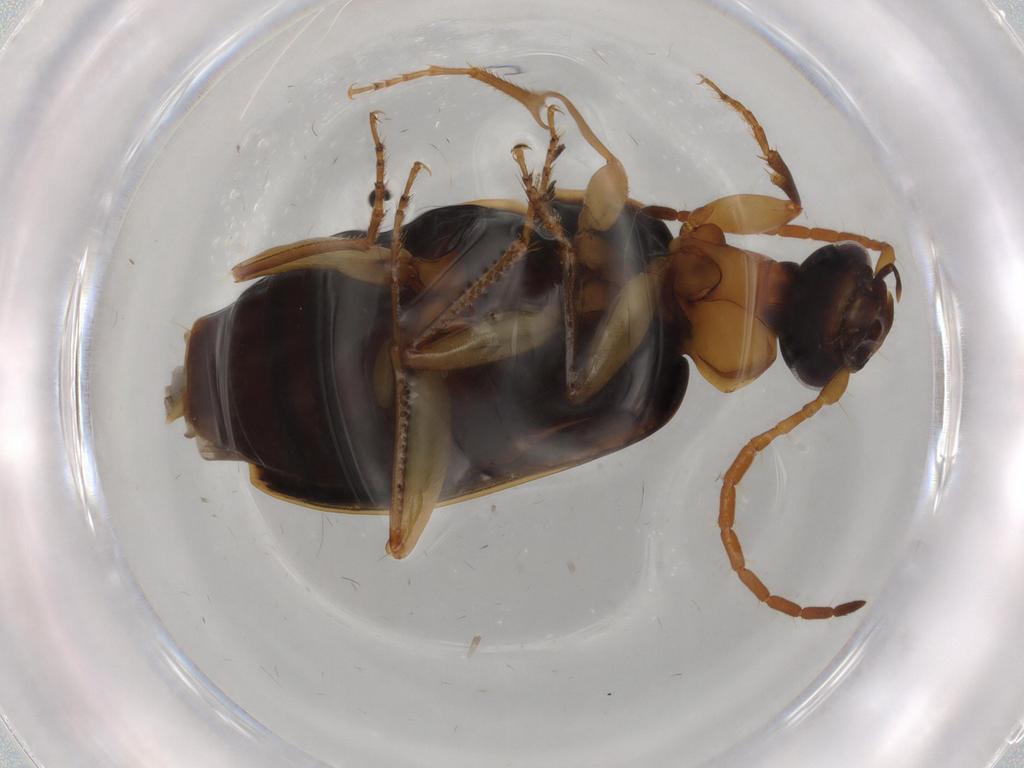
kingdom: Animalia
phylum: Arthropoda
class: Insecta
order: Coleoptera
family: Carabidae
